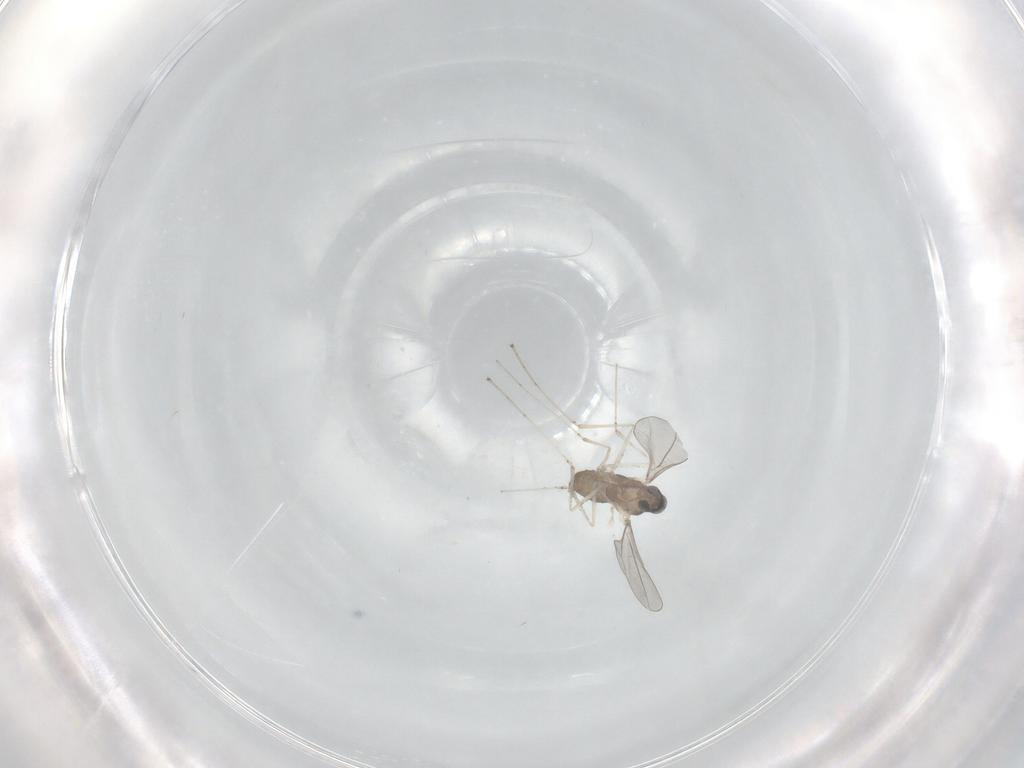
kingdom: Animalia
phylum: Arthropoda
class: Insecta
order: Diptera
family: Cecidomyiidae
